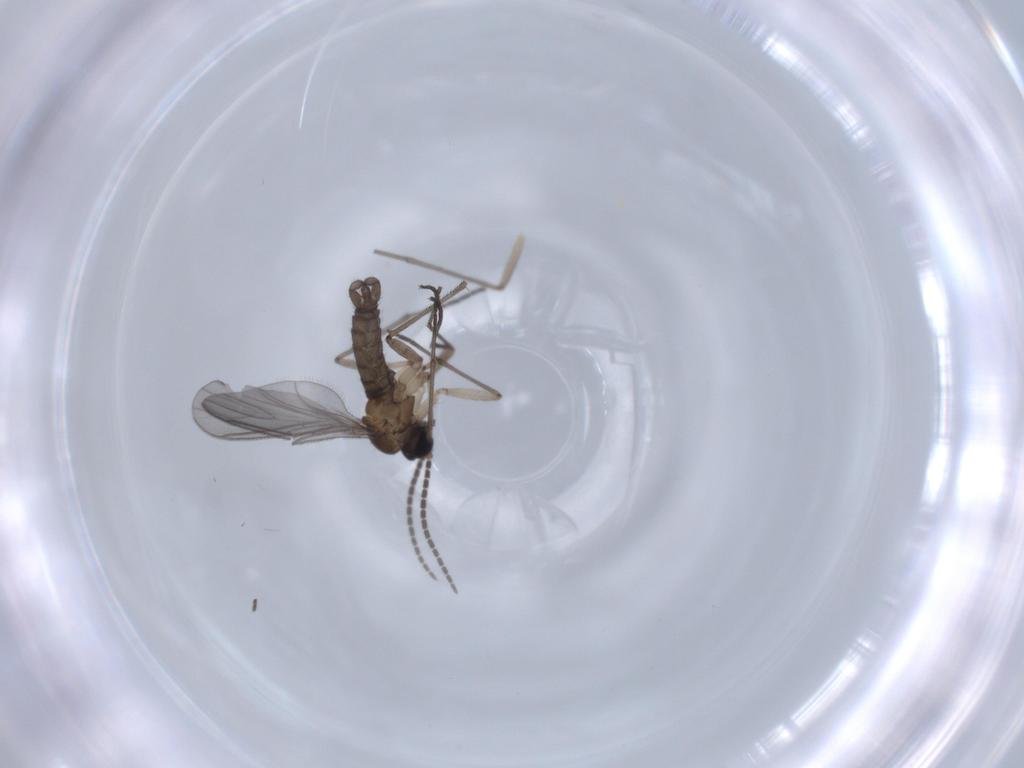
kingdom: Animalia
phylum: Arthropoda
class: Insecta
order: Diptera
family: Sciaridae
